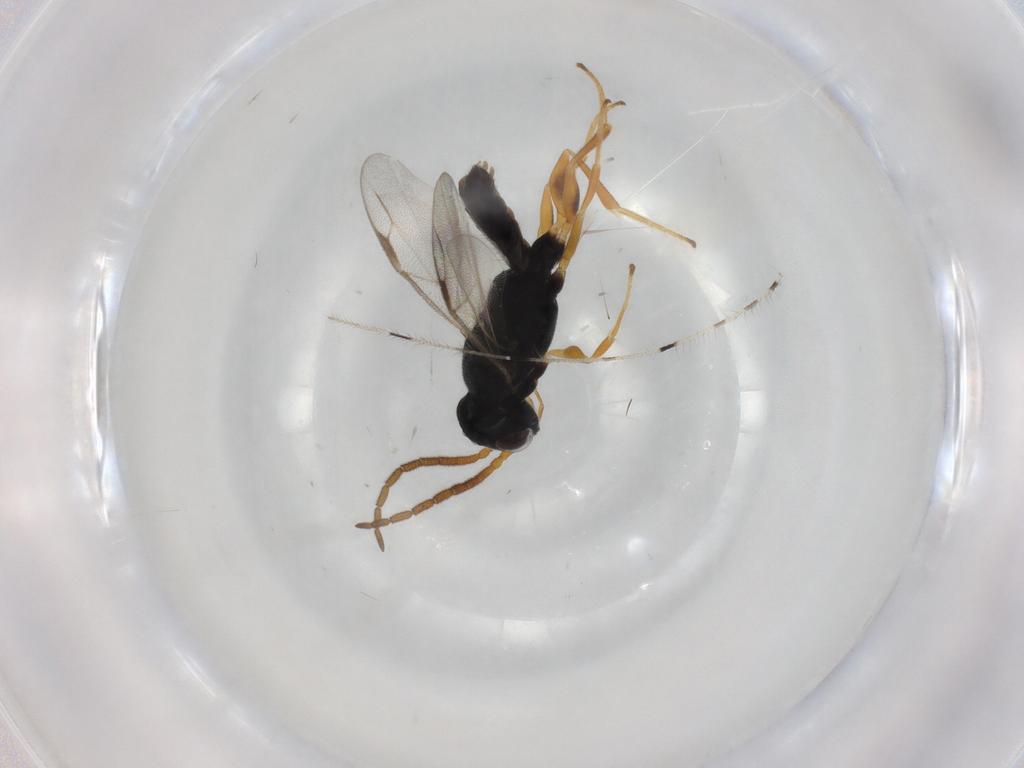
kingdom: Animalia
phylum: Arthropoda
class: Insecta
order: Hymenoptera
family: Dryinidae
